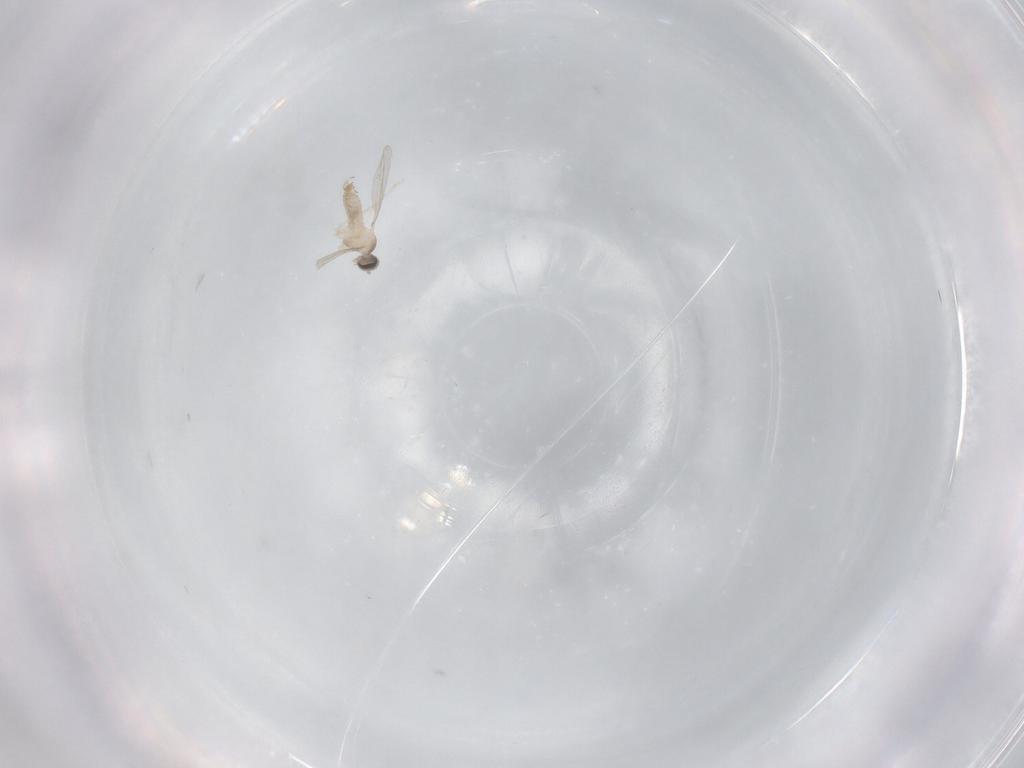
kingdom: Animalia
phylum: Arthropoda
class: Insecta
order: Diptera
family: Cecidomyiidae
